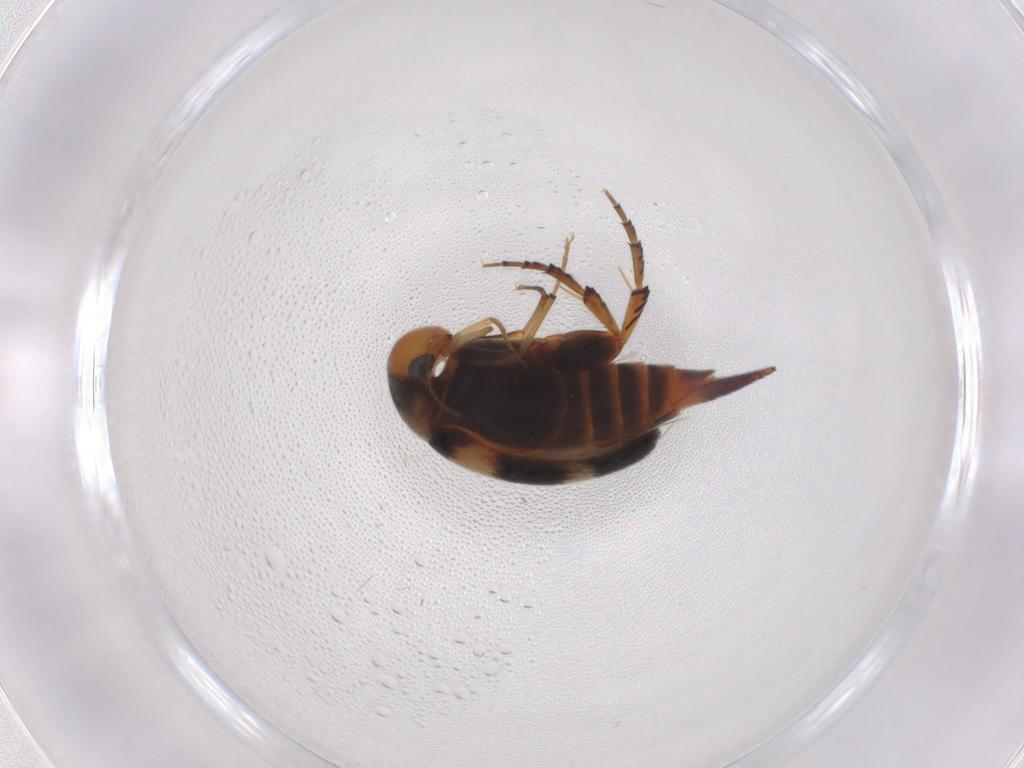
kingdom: Animalia
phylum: Arthropoda
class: Insecta
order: Coleoptera
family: Mordellidae
